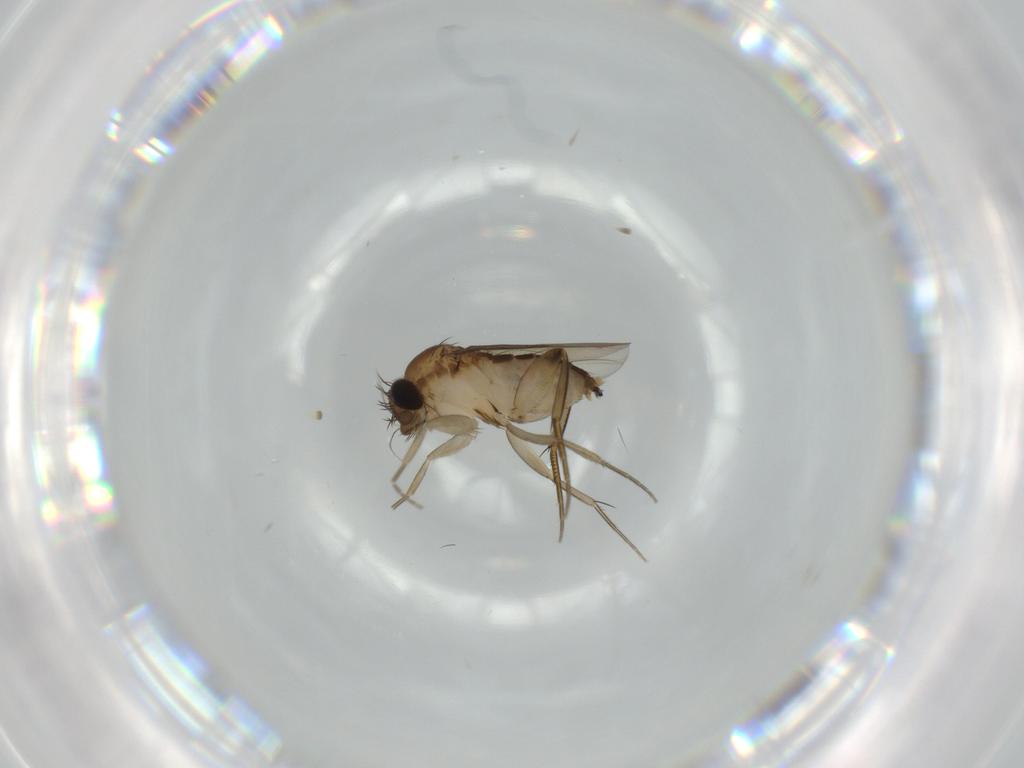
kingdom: Animalia
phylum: Arthropoda
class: Insecta
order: Diptera
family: Phoridae
